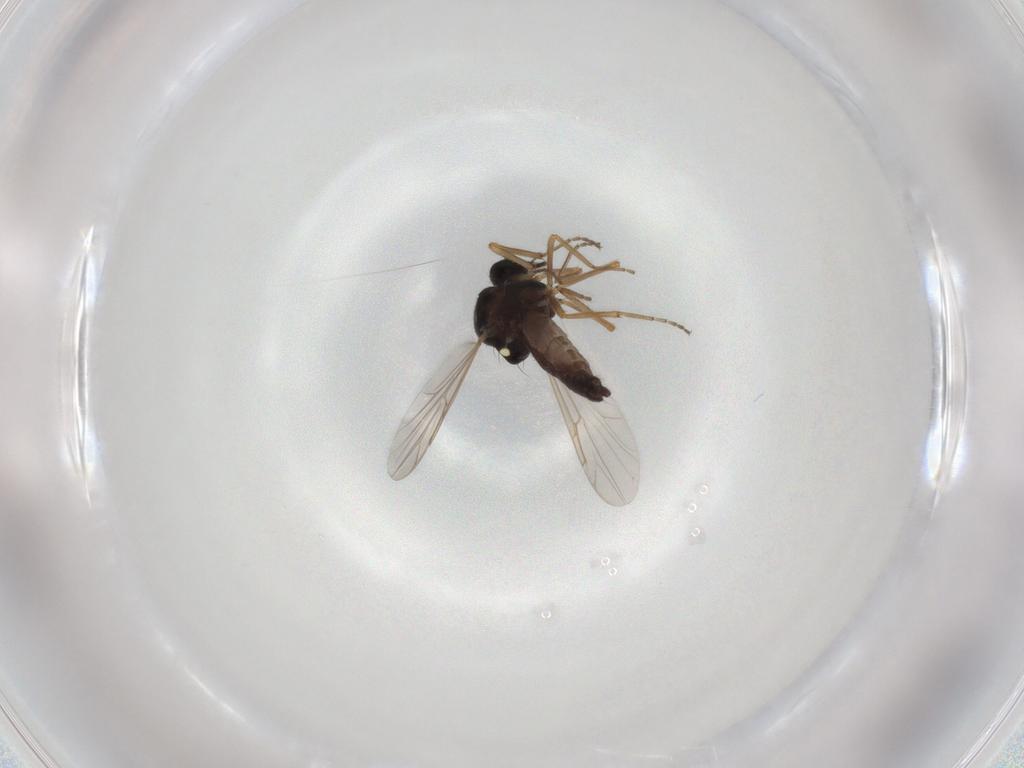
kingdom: Animalia
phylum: Arthropoda
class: Insecta
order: Diptera
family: Ceratopogonidae
